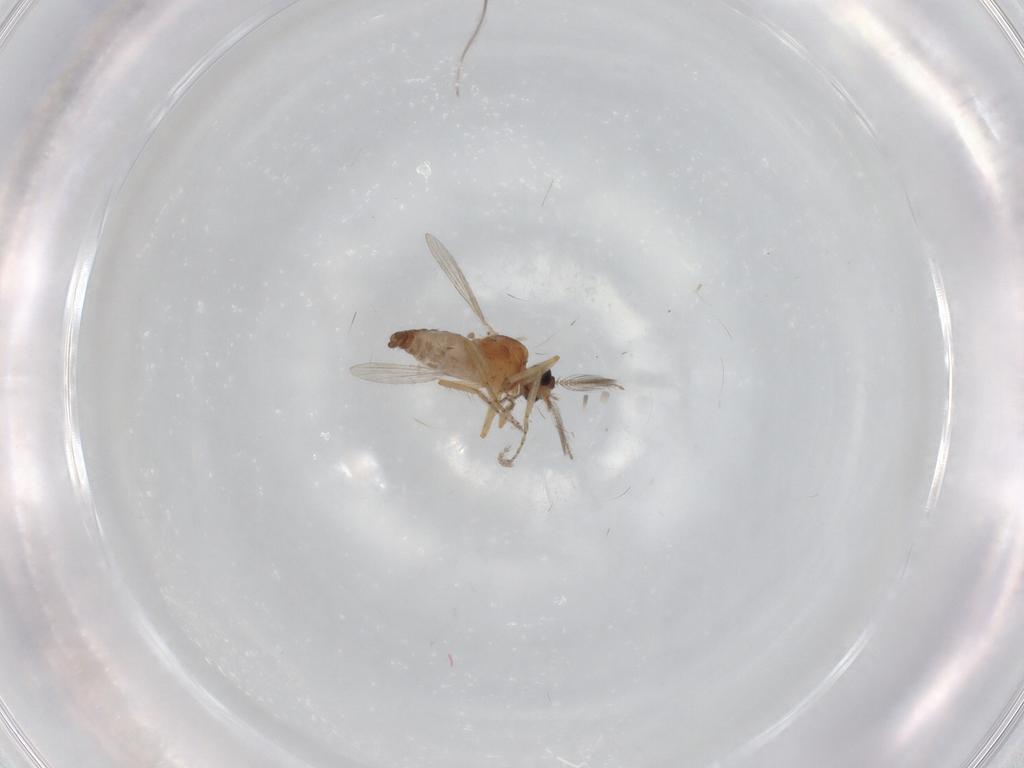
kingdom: Animalia
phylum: Arthropoda
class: Insecta
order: Diptera
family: Ceratopogonidae
